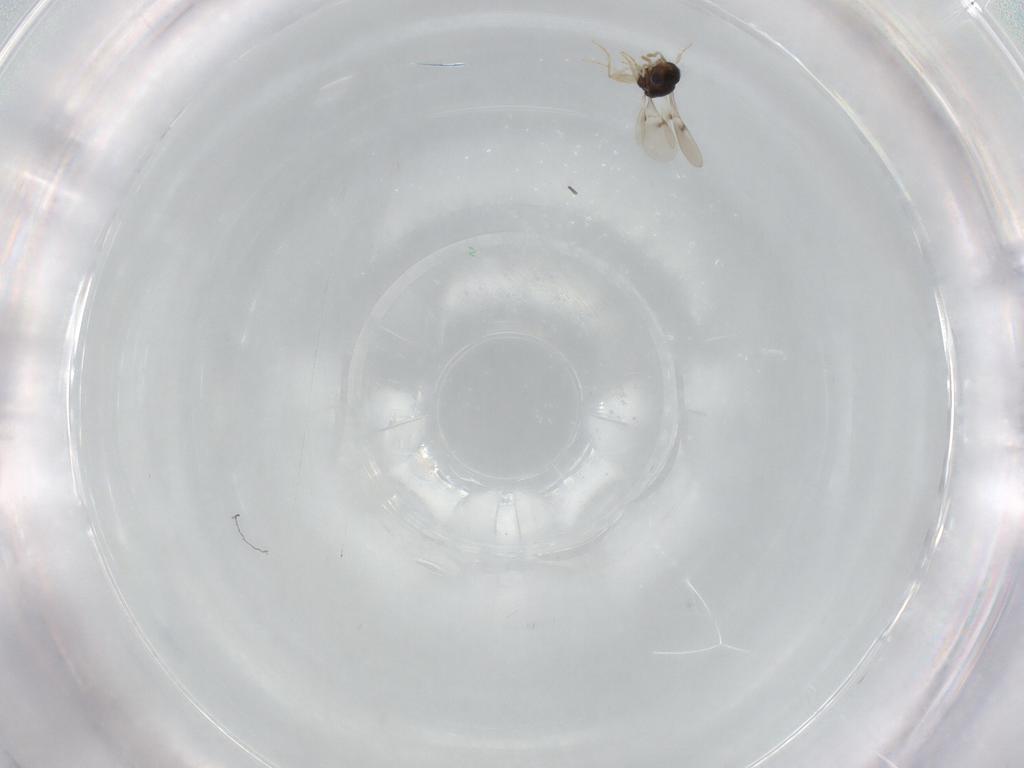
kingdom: Animalia
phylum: Arthropoda
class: Insecta
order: Hymenoptera
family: Scelionidae
